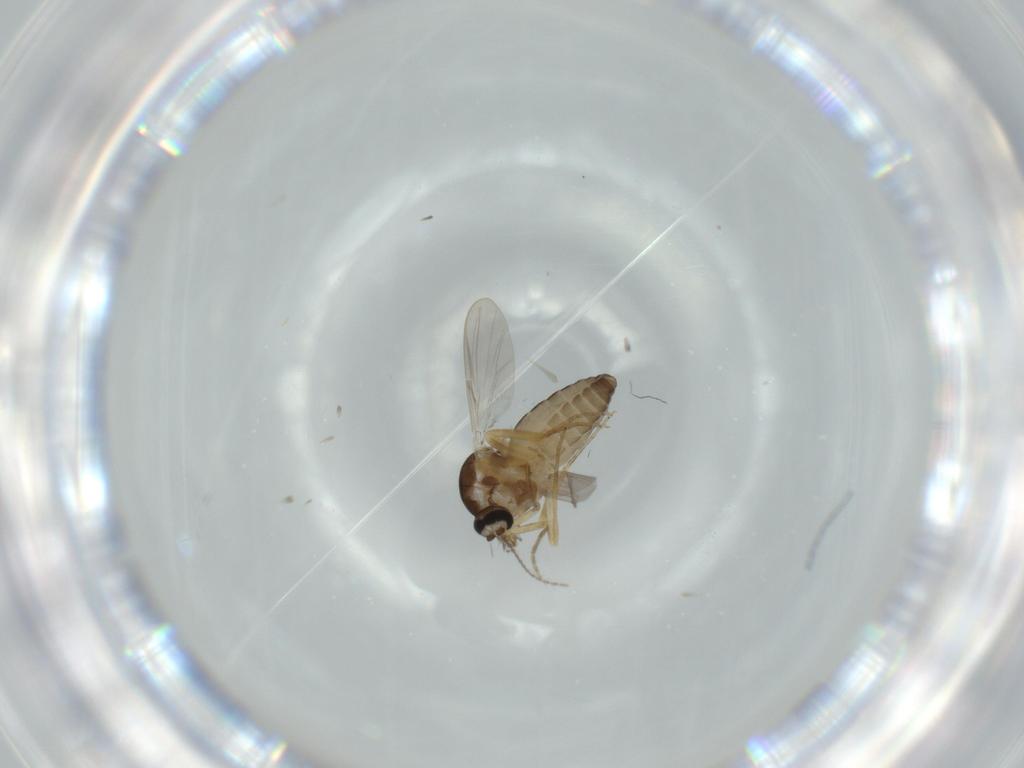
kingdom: Animalia
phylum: Arthropoda
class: Insecta
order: Diptera
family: Ceratopogonidae
